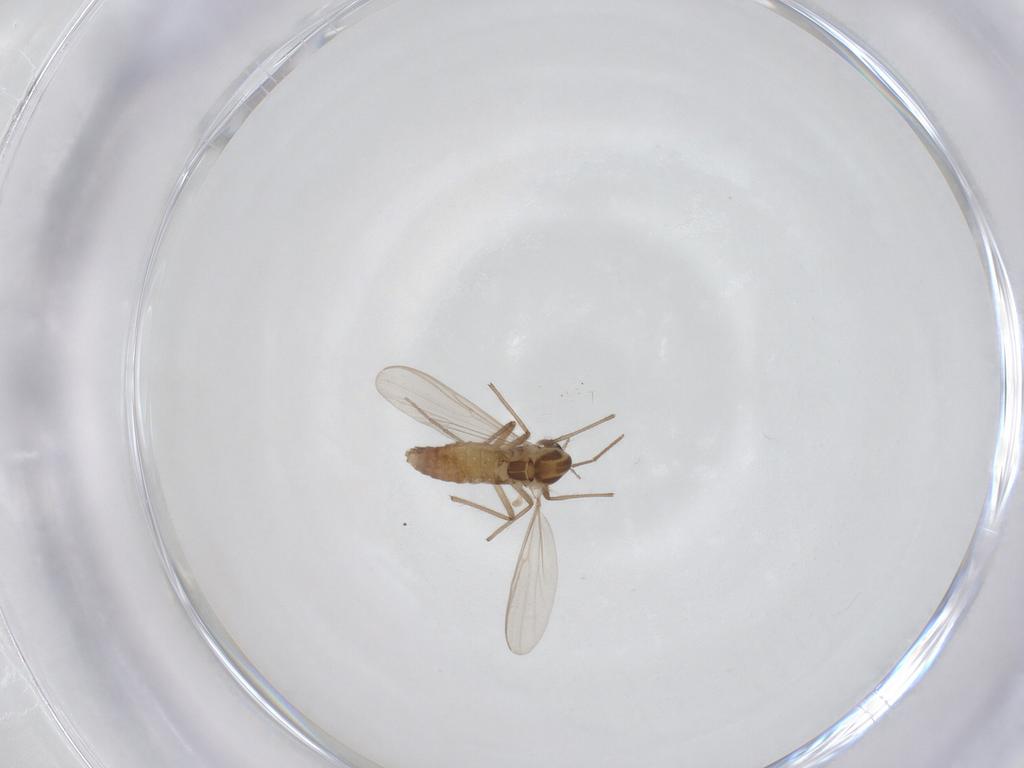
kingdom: Animalia
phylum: Arthropoda
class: Insecta
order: Diptera
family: Chironomidae
